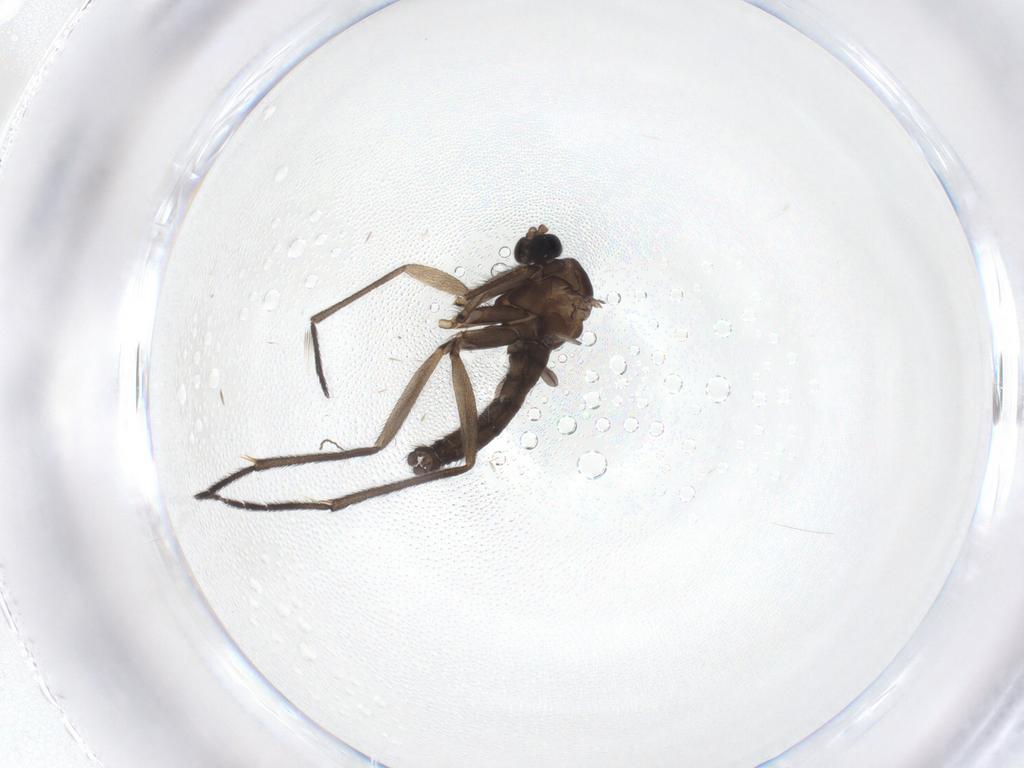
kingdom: Animalia
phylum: Arthropoda
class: Insecta
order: Diptera
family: Sciaridae
